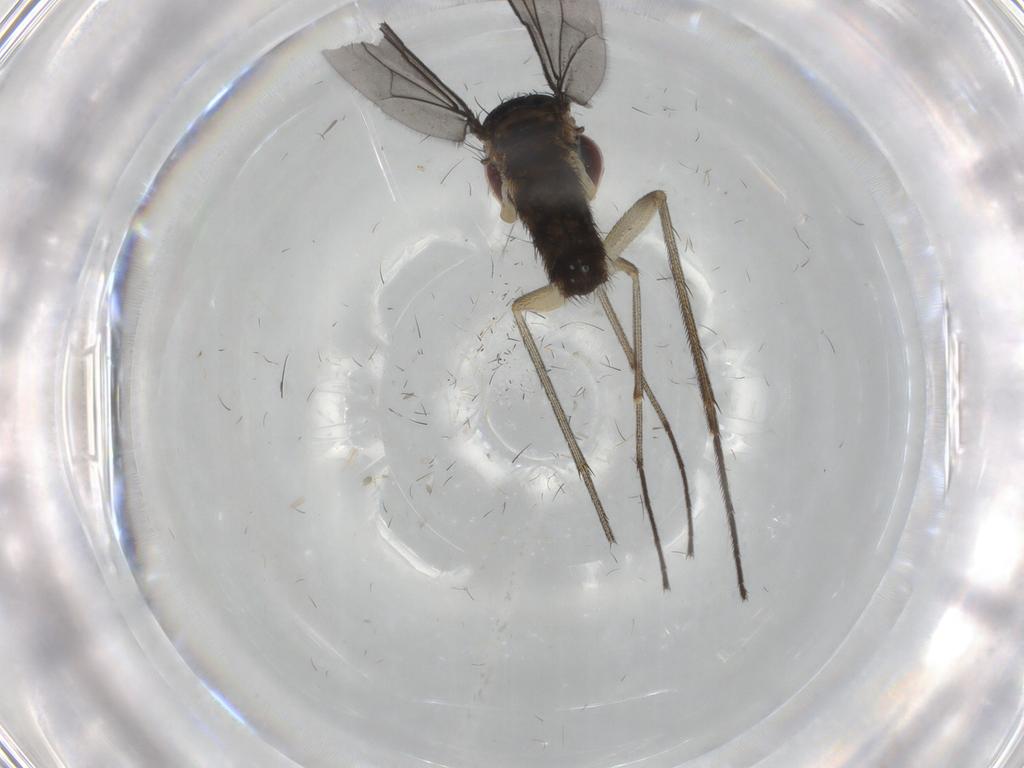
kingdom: Animalia
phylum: Arthropoda
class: Insecta
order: Diptera
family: Dolichopodidae
